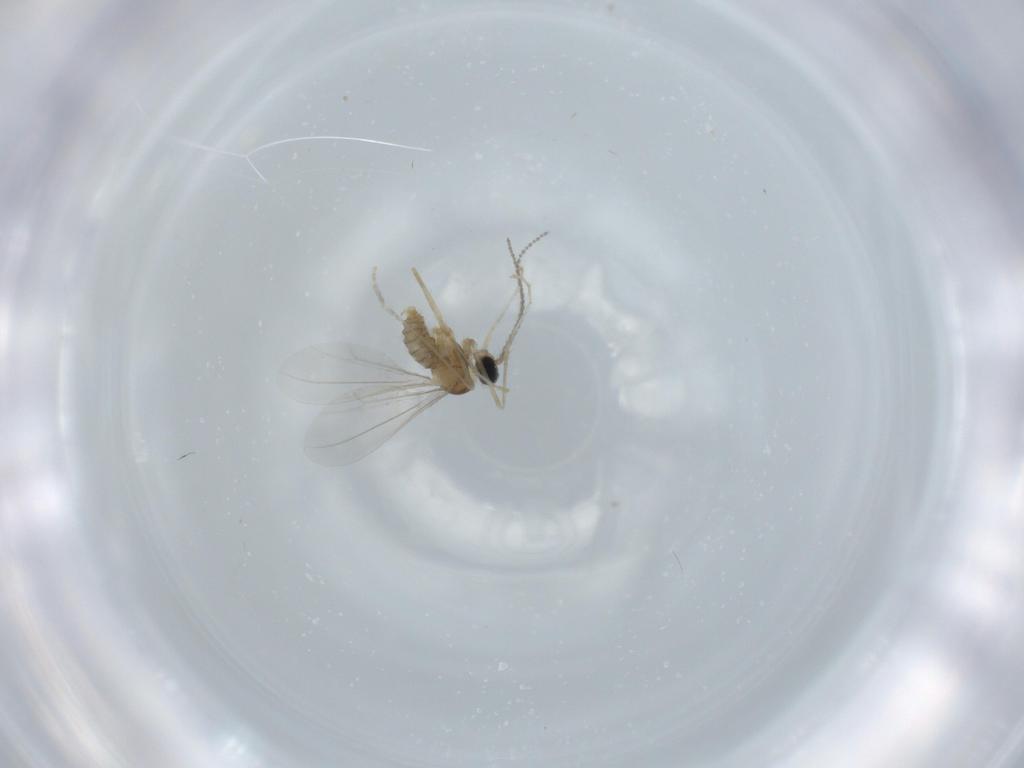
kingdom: Animalia
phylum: Arthropoda
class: Insecta
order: Diptera
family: Cecidomyiidae
